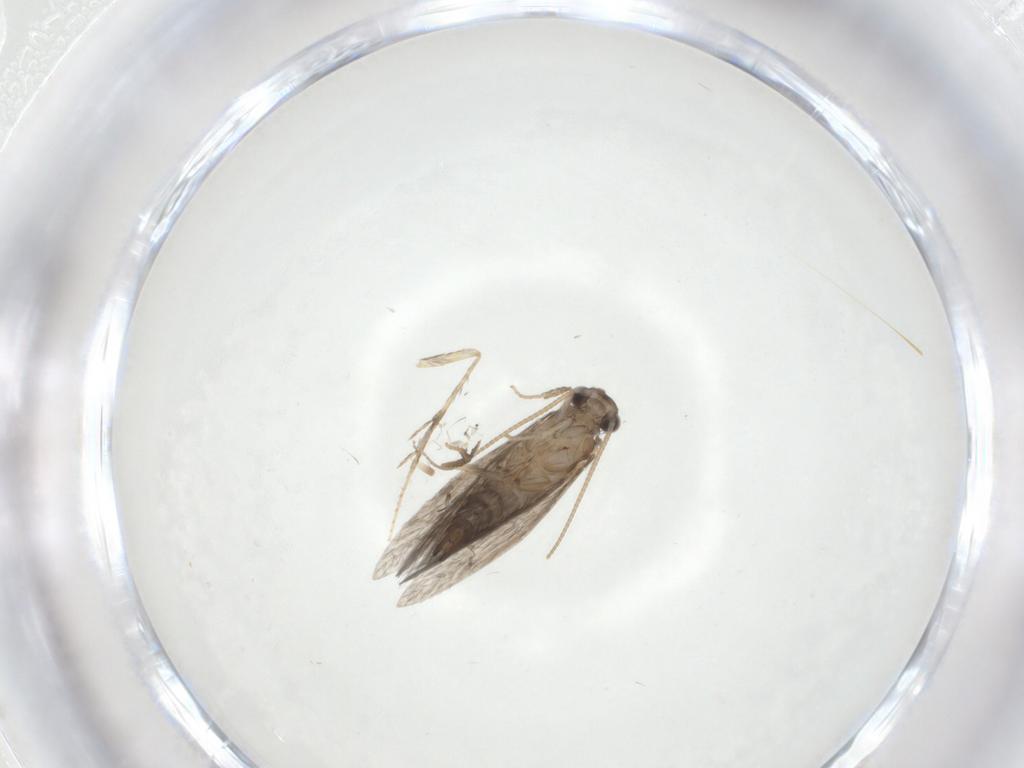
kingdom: Animalia
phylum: Arthropoda
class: Insecta
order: Trichoptera
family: Hydroptilidae
